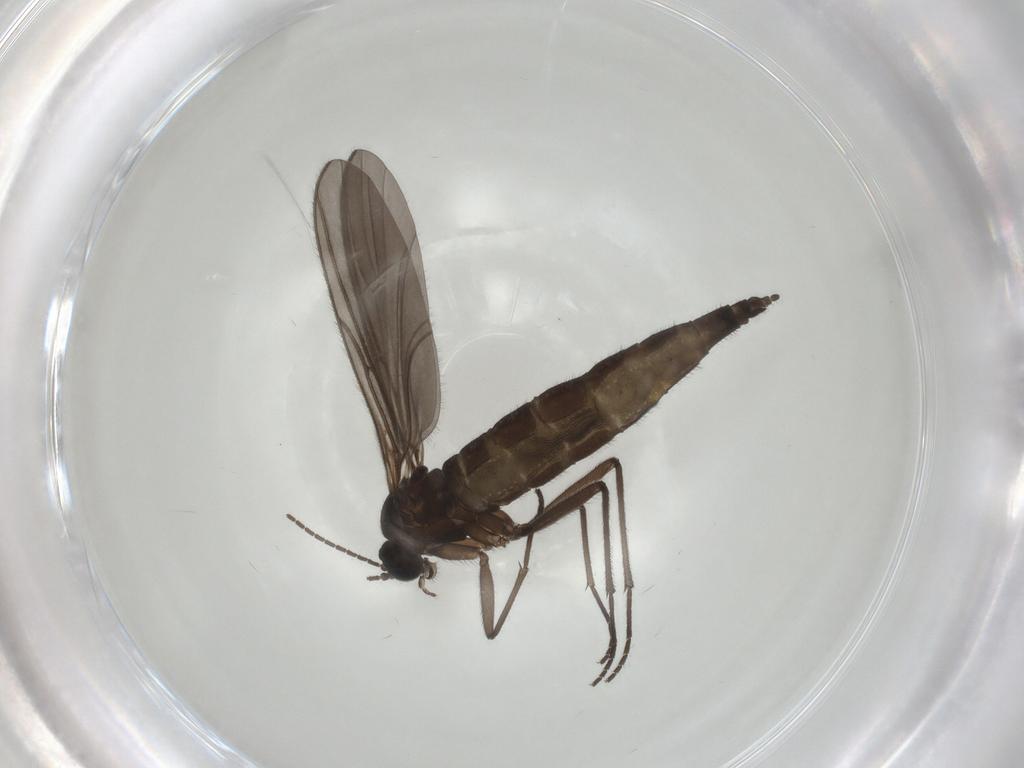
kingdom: Animalia
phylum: Arthropoda
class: Insecta
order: Diptera
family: Sciaridae
